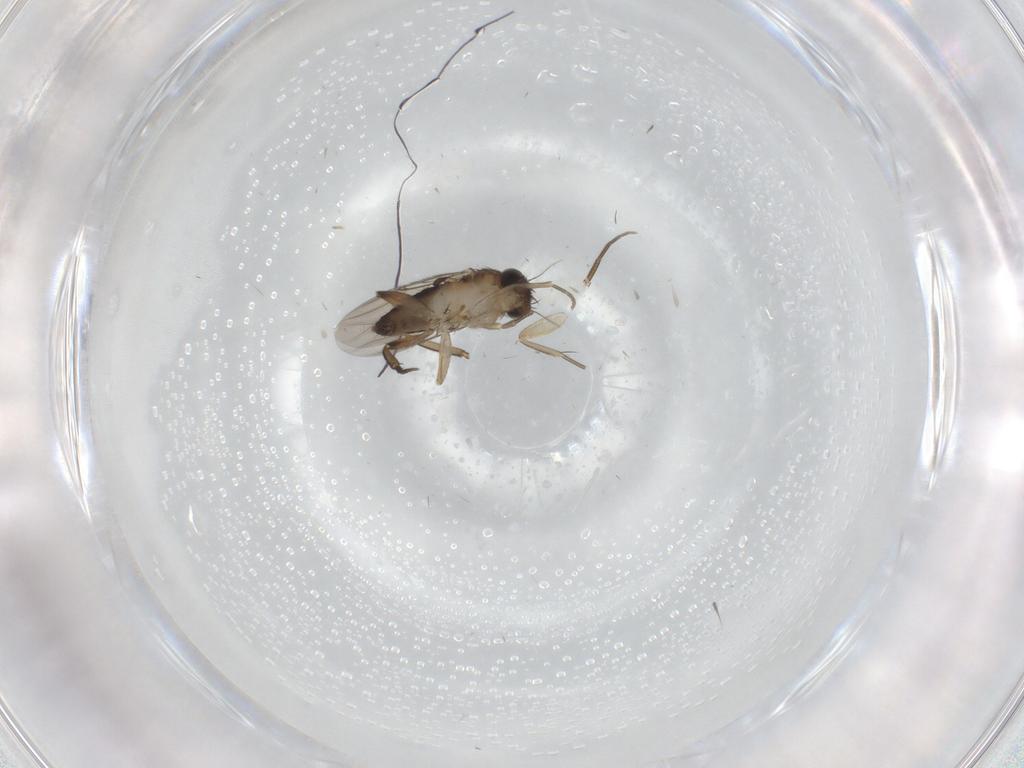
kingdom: Animalia
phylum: Arthropoda
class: Insecta
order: Diptera
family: Phoridae
